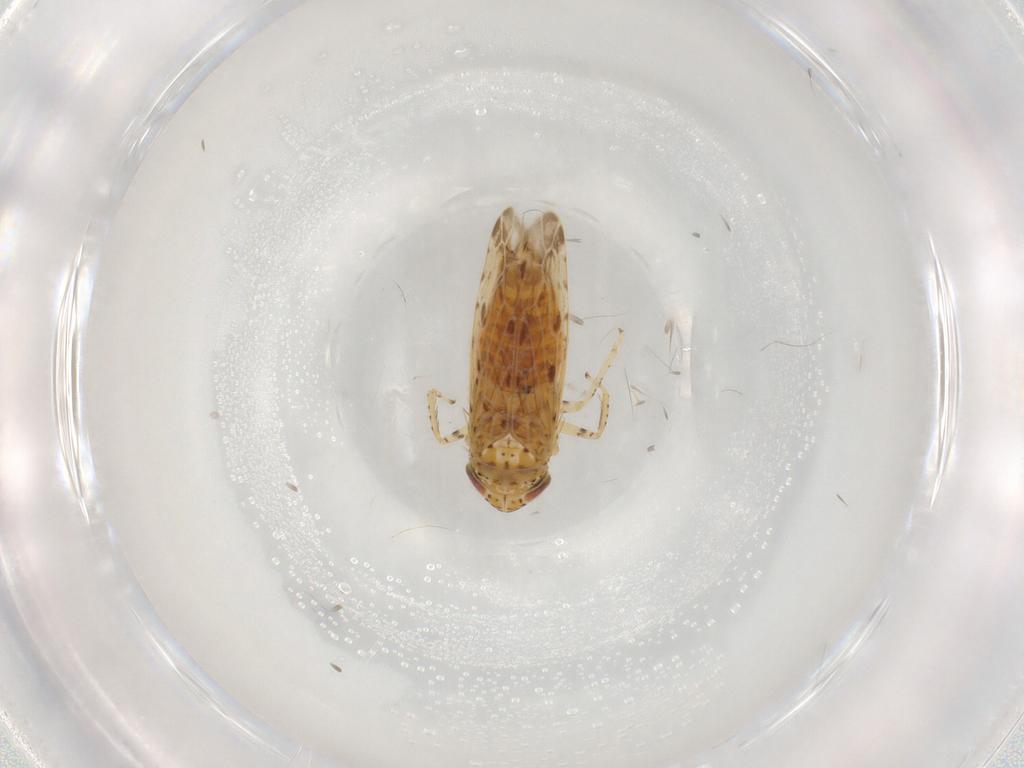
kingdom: Animalia
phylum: Arthropoda
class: Insecta
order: Hemiptera
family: Cicadellidae
